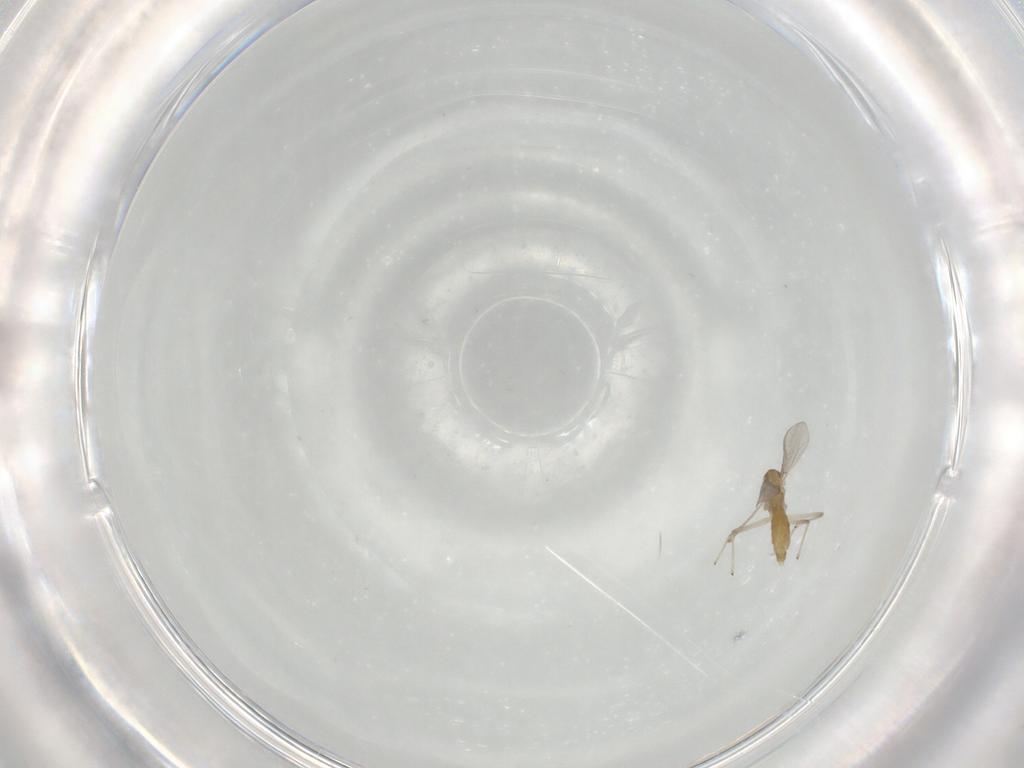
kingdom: Animalia
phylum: Arthropoda
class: Insecta
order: Diptera
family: Chironomidae
